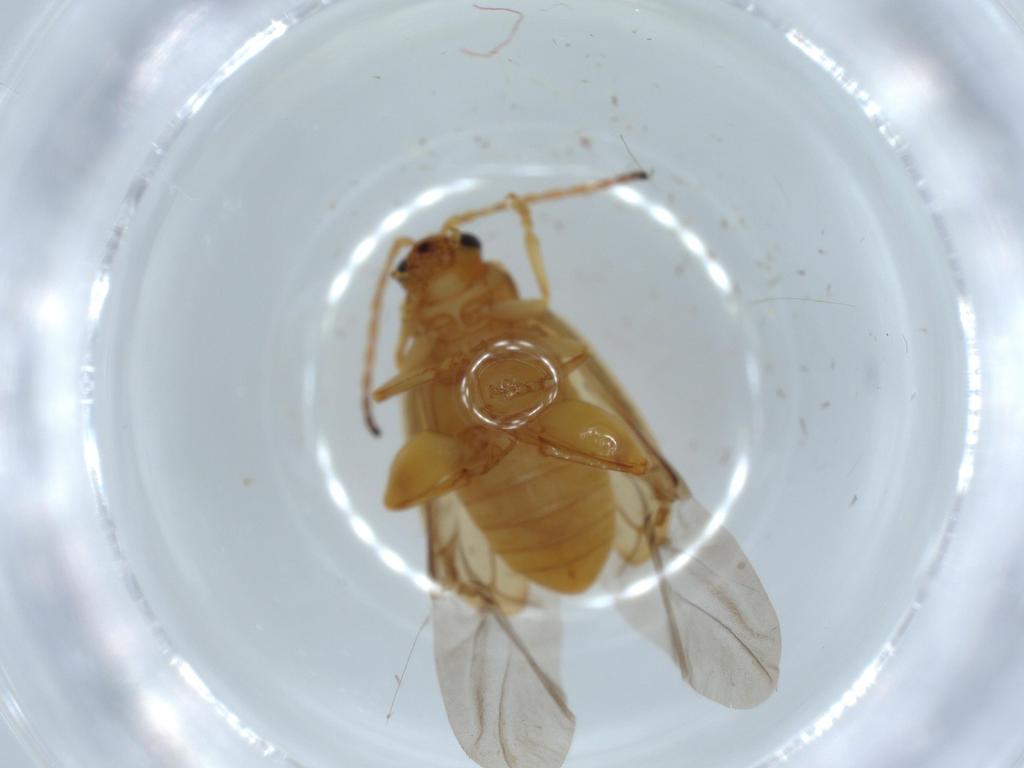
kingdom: Animalia
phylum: Arthropoda
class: Insecta
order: Coleoptera
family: Chrysomelidae
